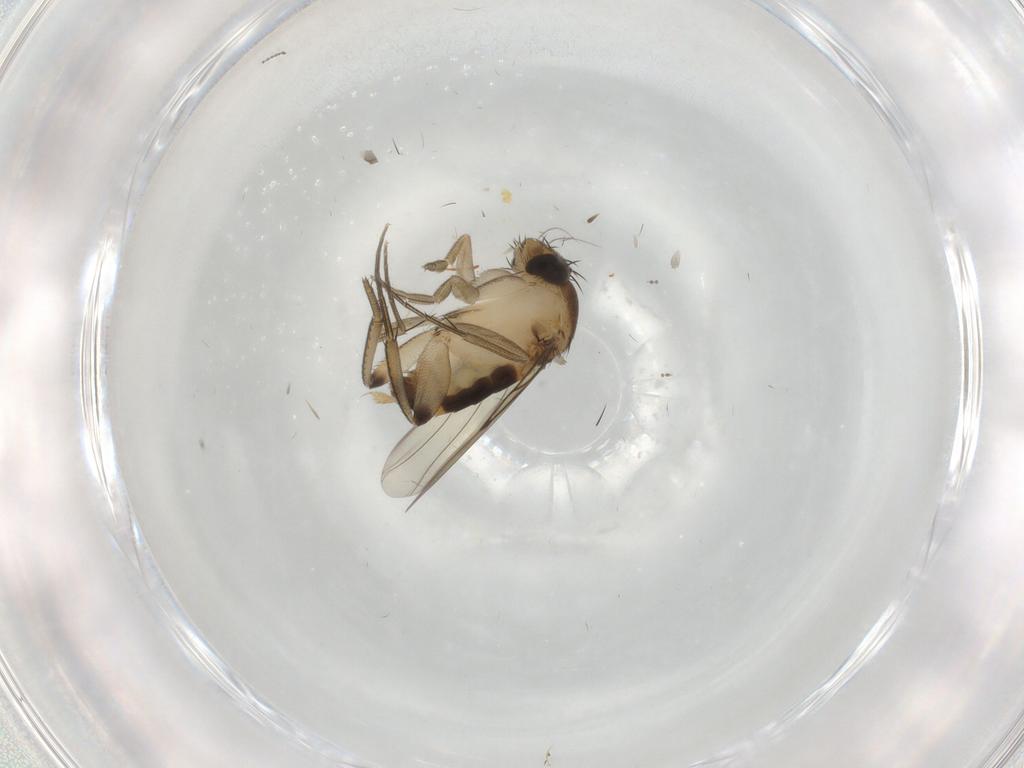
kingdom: Animalia
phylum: Arthropoda
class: Insecta
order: Diptera
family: Phoridae
